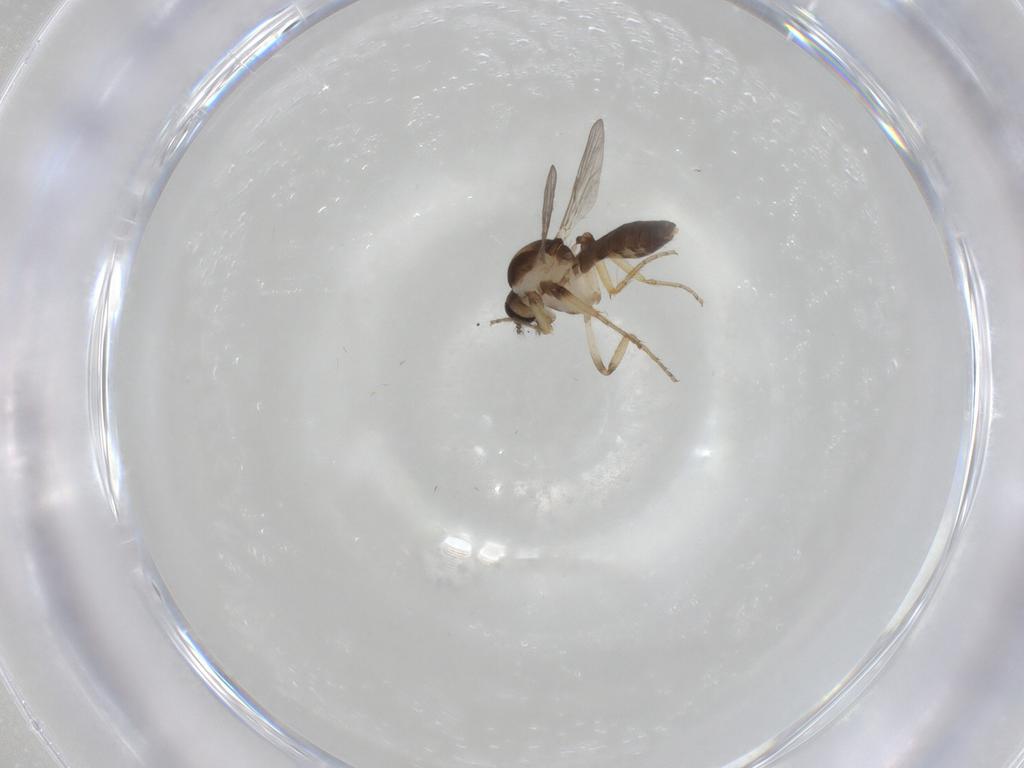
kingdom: Animalia
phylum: Arthropoda
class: Insecta
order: Diptera
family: Ceratopogonidae
